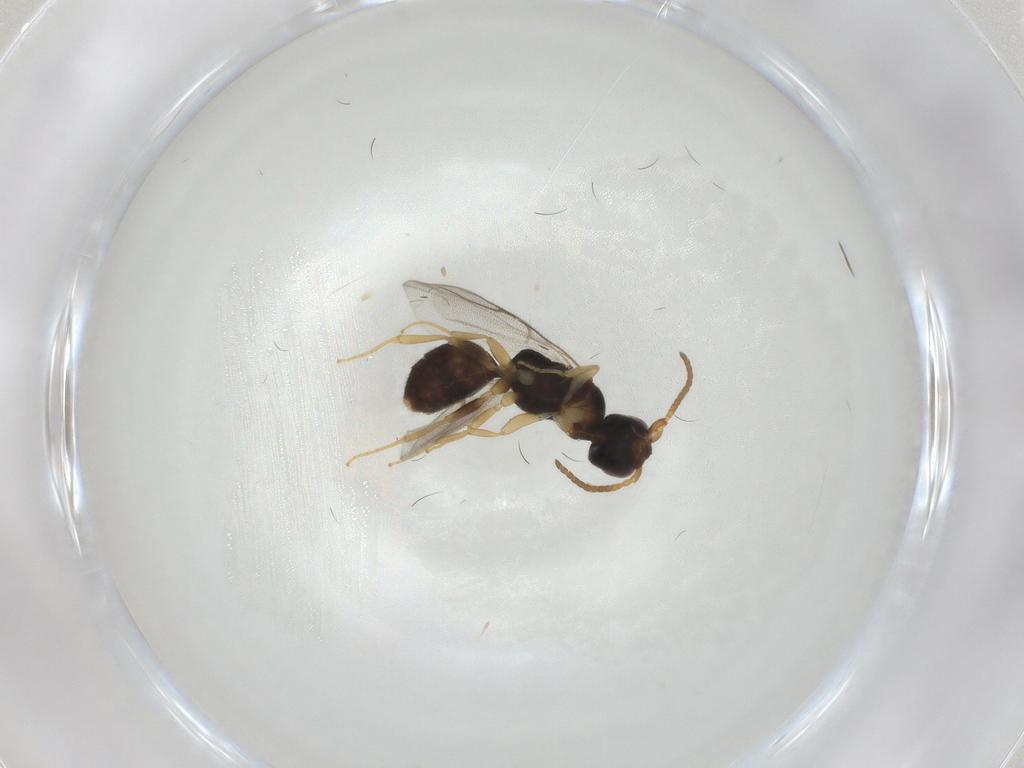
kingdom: Animalia
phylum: Arthropoda
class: Insecta
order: Hymenoptera
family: Bethylidae
